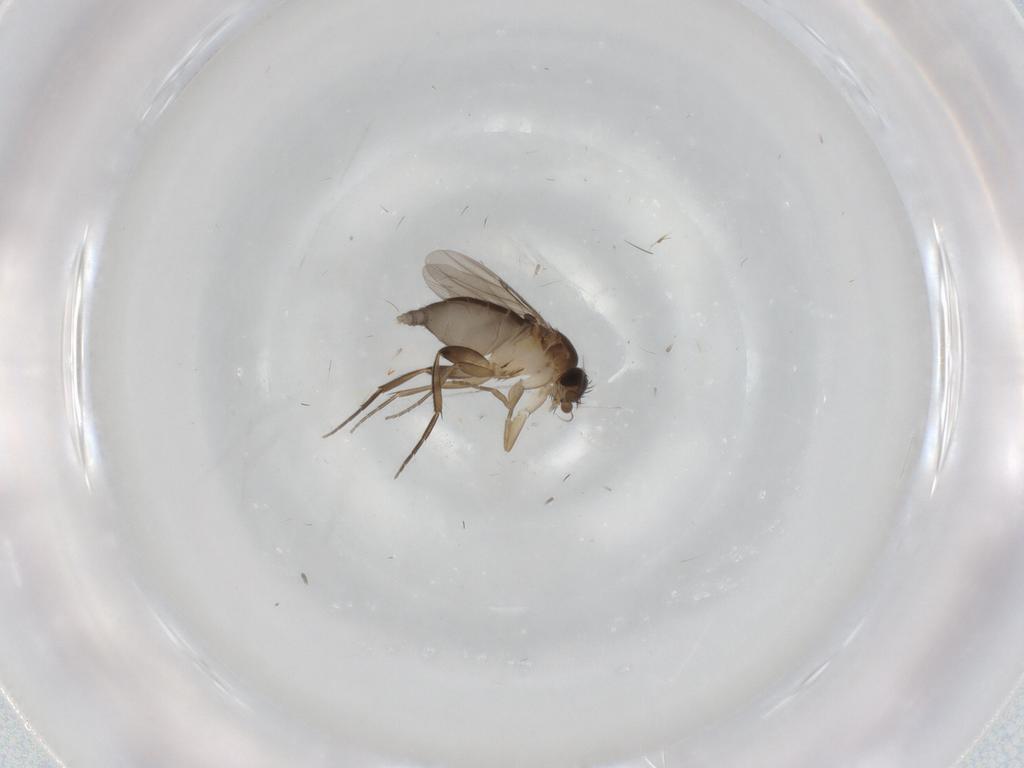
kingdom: Animalia
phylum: Arthropoda
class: Insecta
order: Diptera
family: Phoridae
